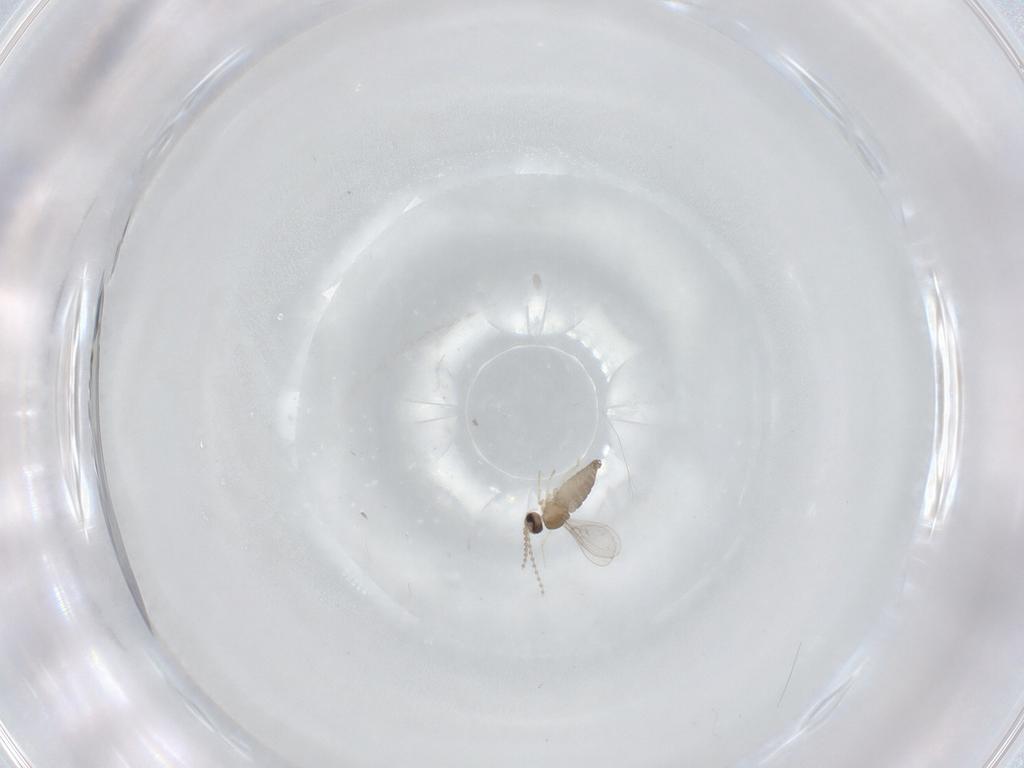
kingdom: Animalia
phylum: Arthropoda
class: Insecta
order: Diptera
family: Cecidomyiidae
